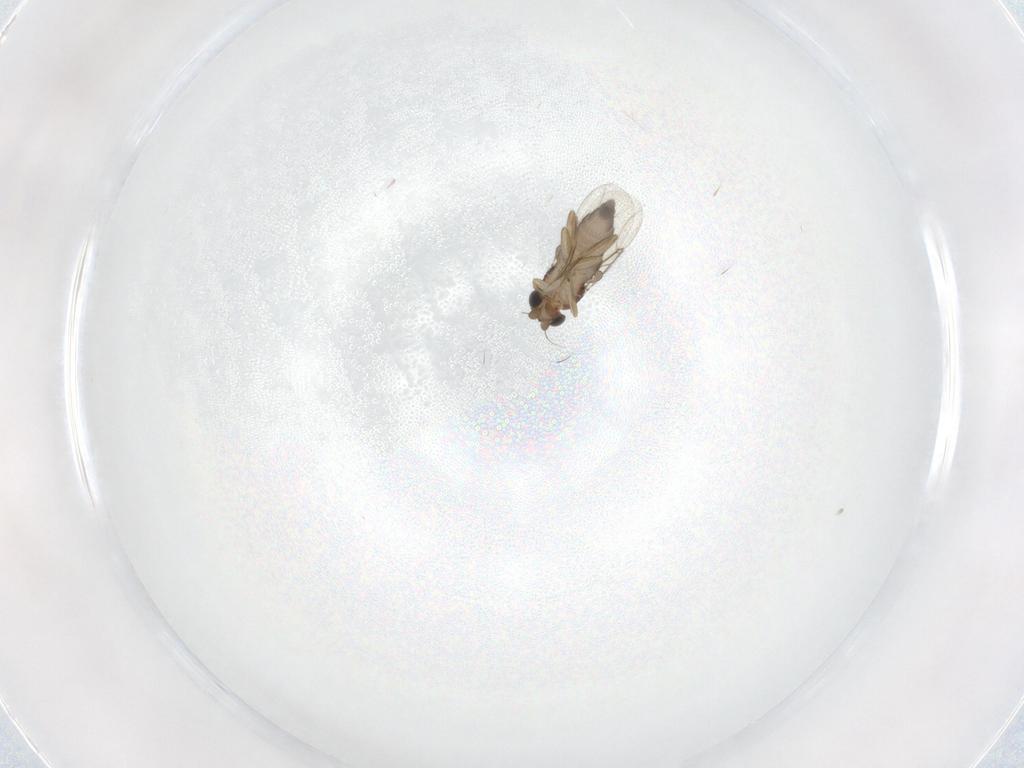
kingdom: Animalia
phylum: Arthropoda
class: Insecta
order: Diptera
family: Phoridae
